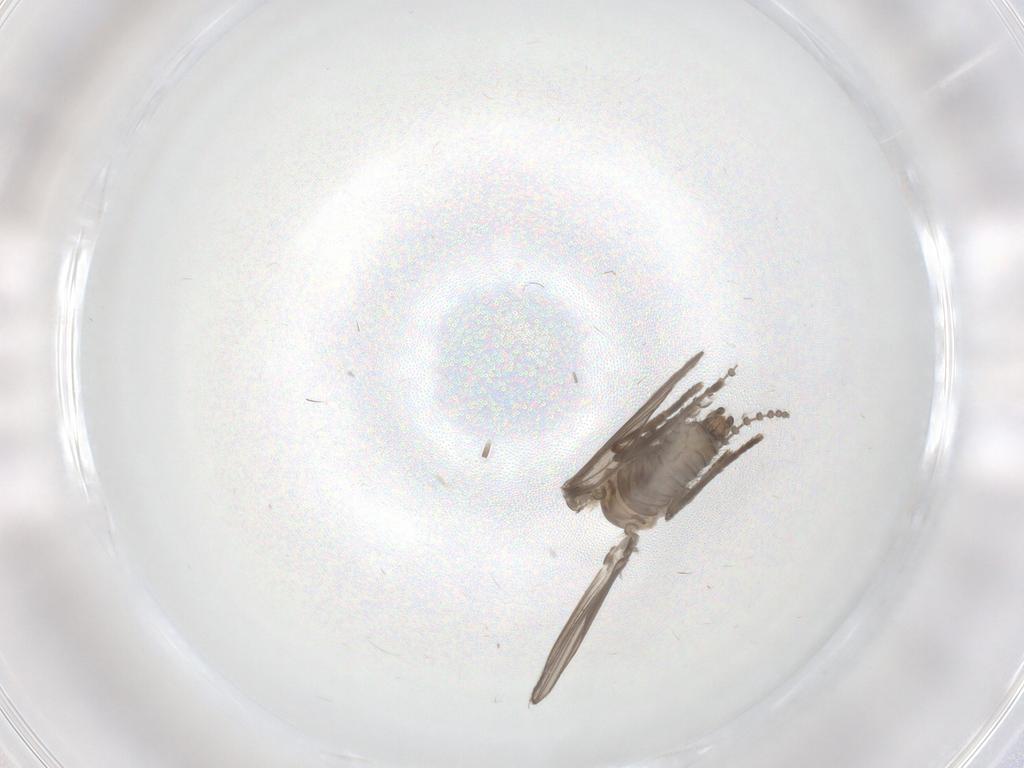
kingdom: Animalia
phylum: Arthropoda
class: Insecta
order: Diptera
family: Psychodidae
